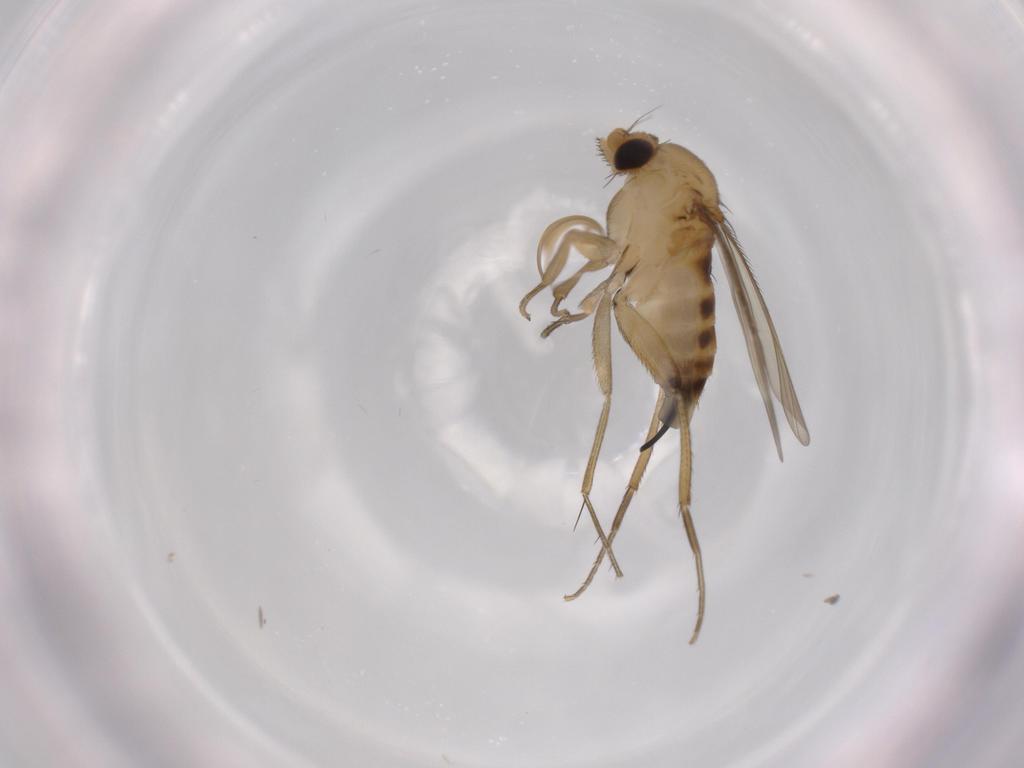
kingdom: Animalia
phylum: Arthropoda
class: Insecta
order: Diptera
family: Phoridae
